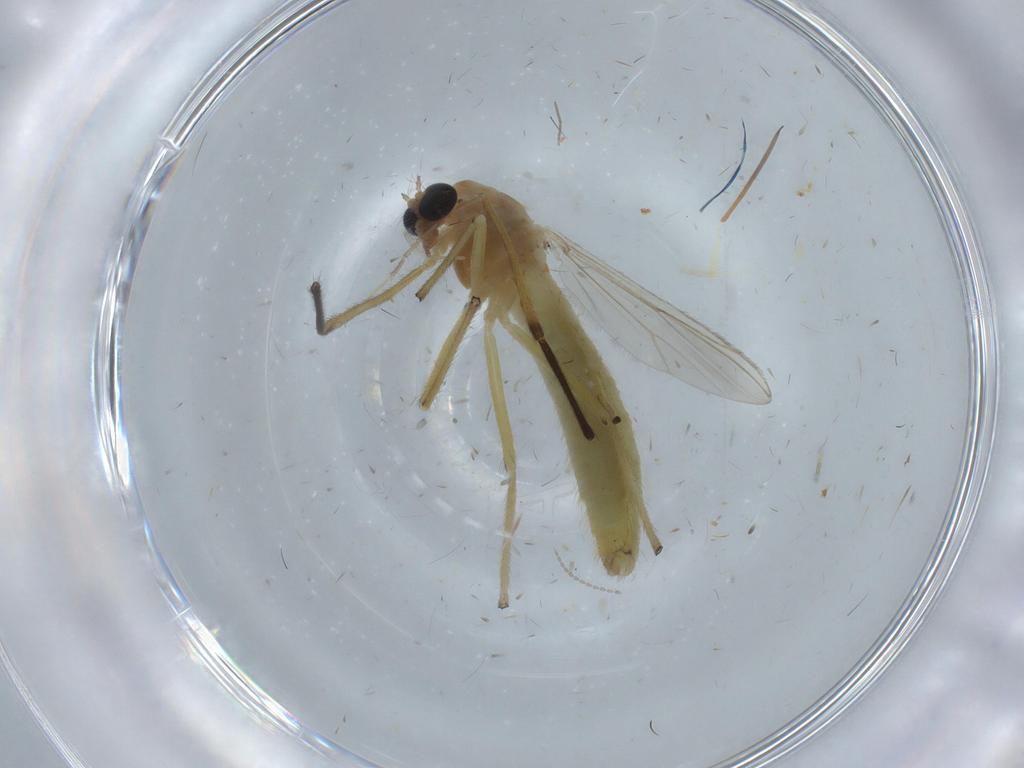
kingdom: Animalia
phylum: Arthropoda
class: Insecta
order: Diptera
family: Chironomidae
